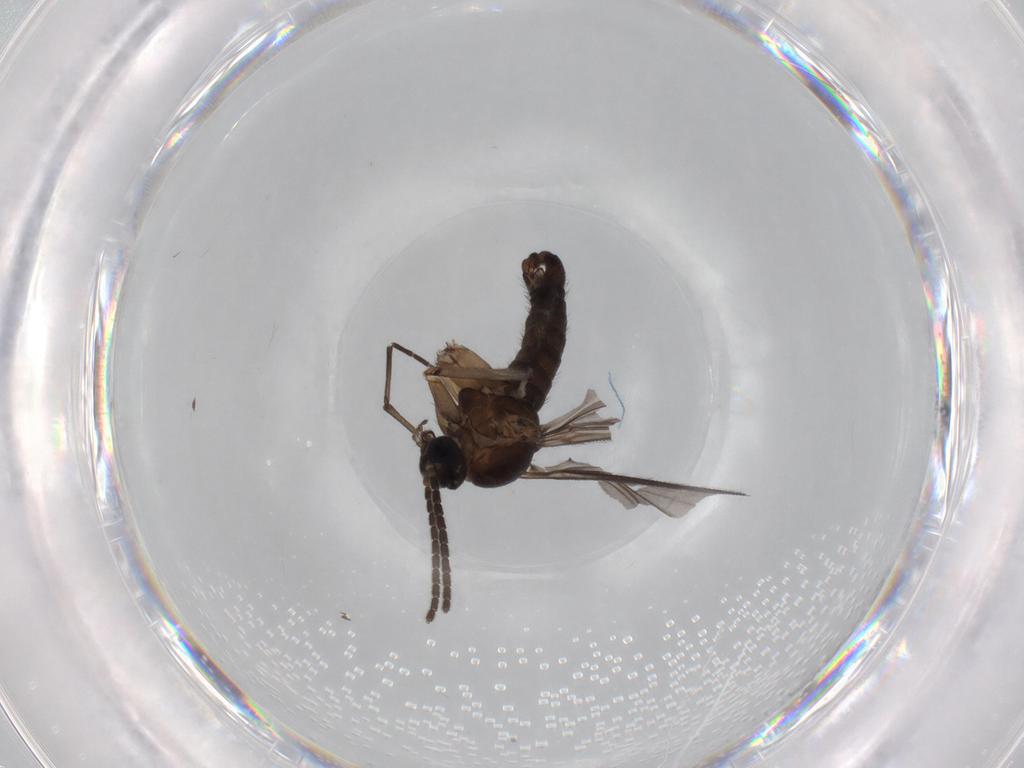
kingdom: Animalia
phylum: Arthropoda
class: Insecta
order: Diptera
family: Sciaridae
